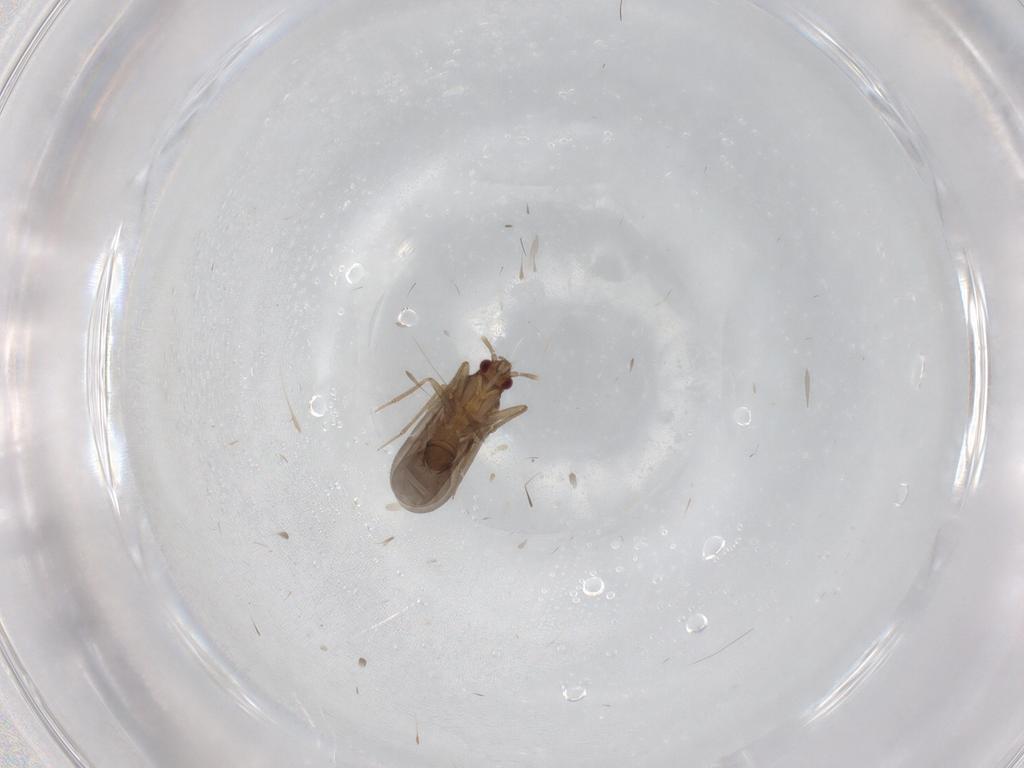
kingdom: Animalia
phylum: Arthropoda
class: Insecta
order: Hemiptera
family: Ceratocombidae
